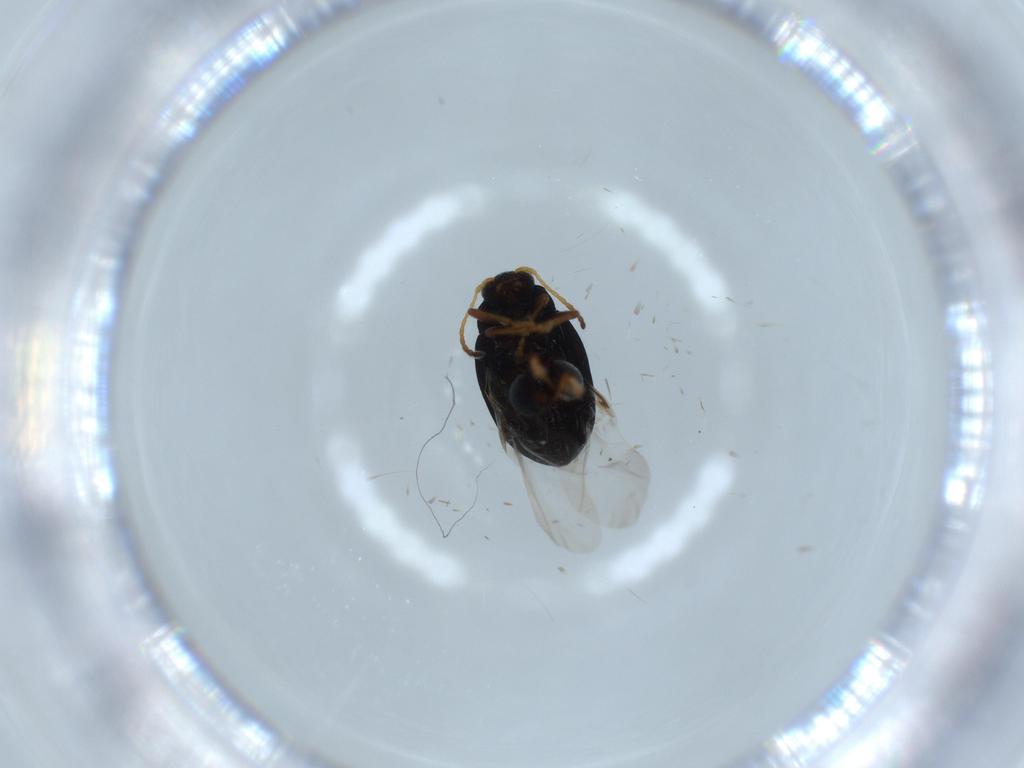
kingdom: Animalia
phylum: Arthropoda
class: Insecta
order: Coleoptera
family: Chrysomelidae
